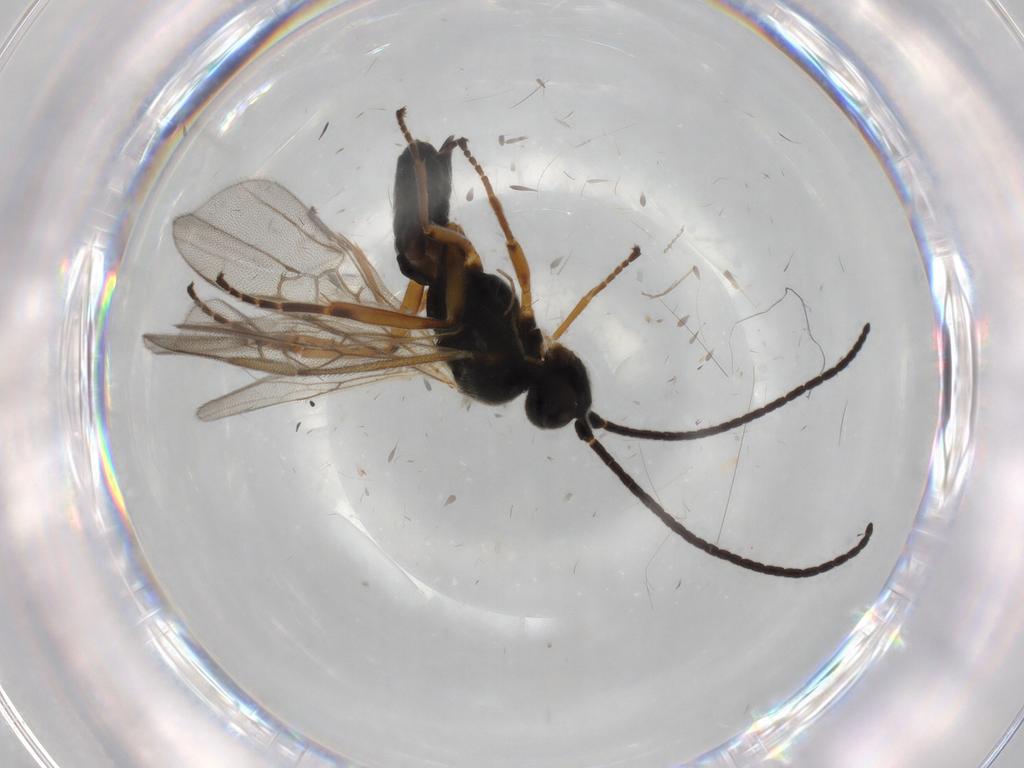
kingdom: Animalia
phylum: Arthropoda
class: Insecta
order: Hymenoptera
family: Braconidae
